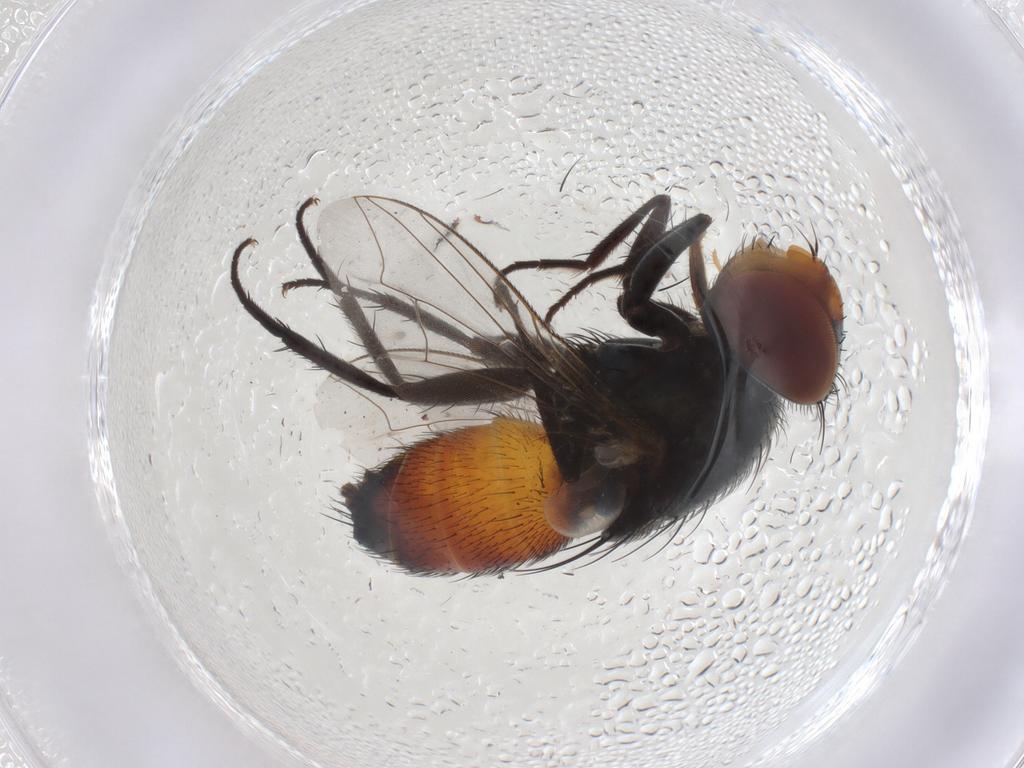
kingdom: Animalia
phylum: Arthropoda
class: Insecta
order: Diptera
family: Sarcophagidae
